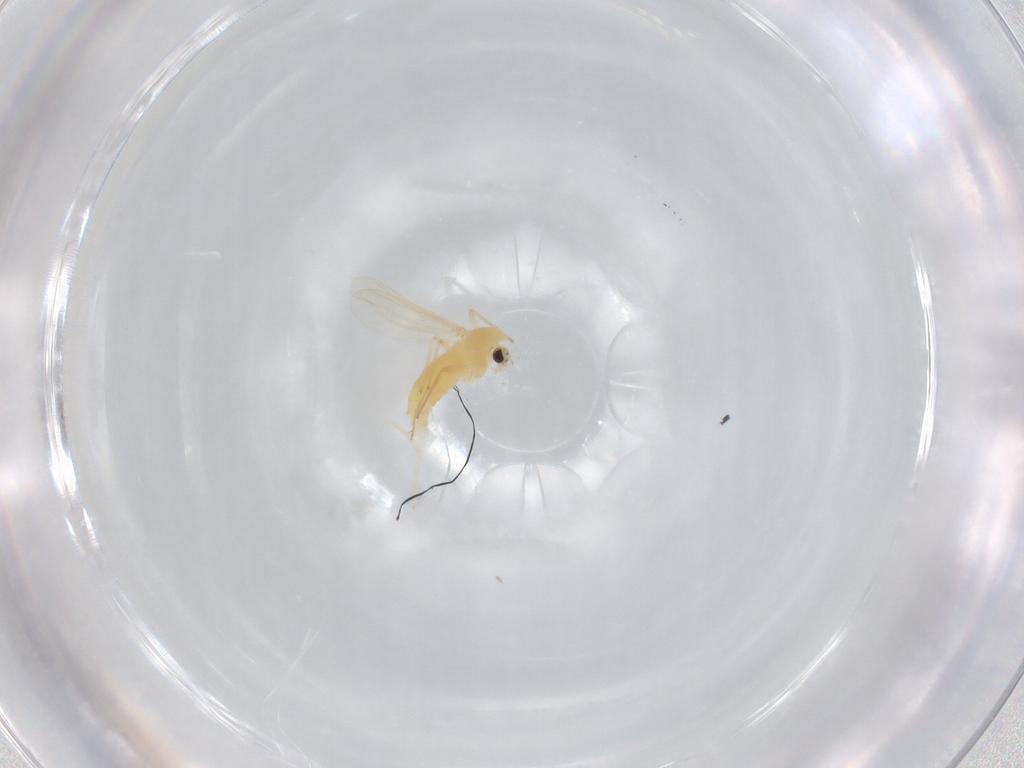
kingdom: Animalia
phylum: Arthropoda
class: Insecta
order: Diptera
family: Chironomidae
